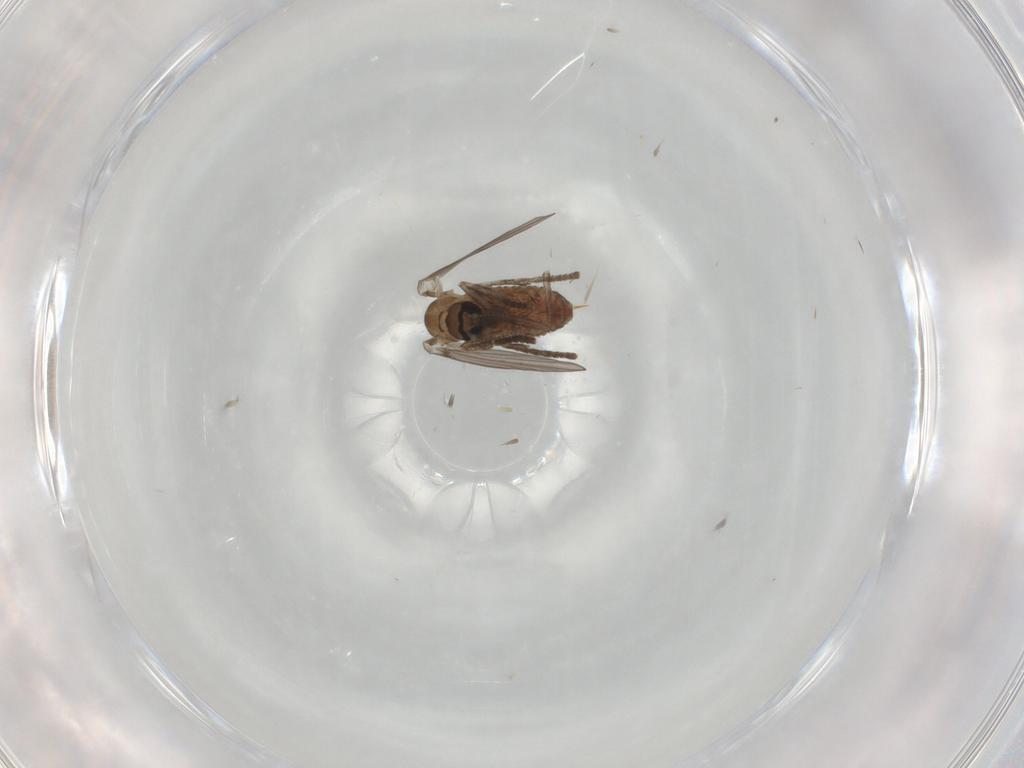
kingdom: Animalia
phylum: Arthropoda
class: Insecta
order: Diptera
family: Psychodidae
